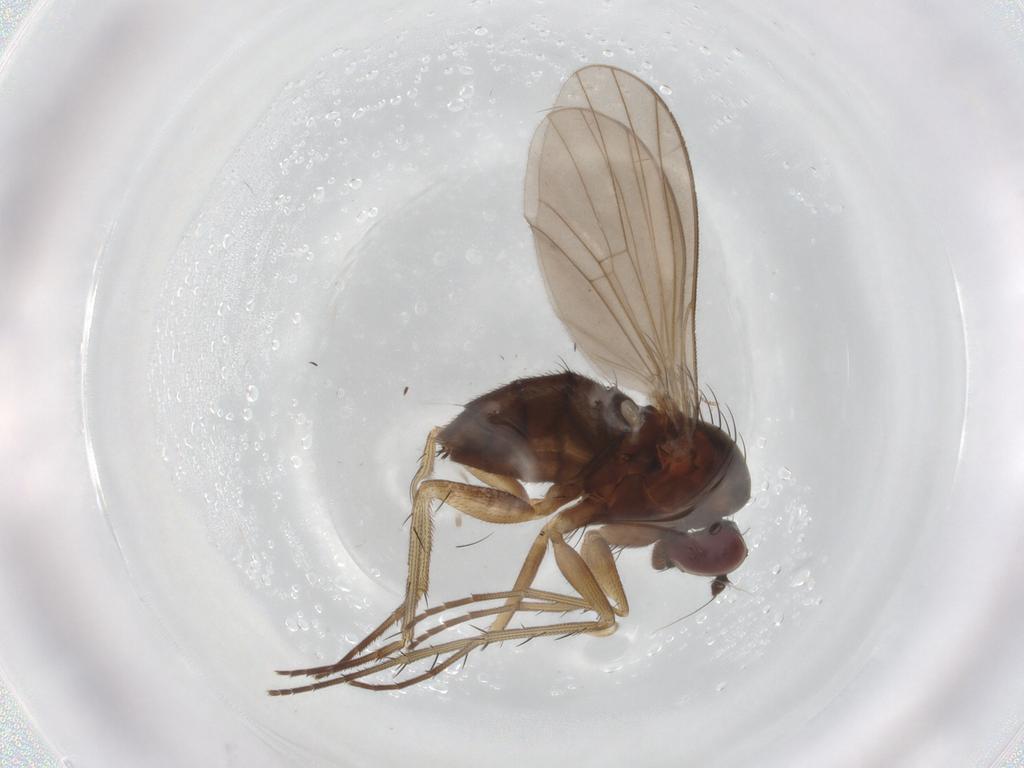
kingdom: Animalia
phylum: Arthropoda
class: Insecta
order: Diptera
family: Dolichopodidae
